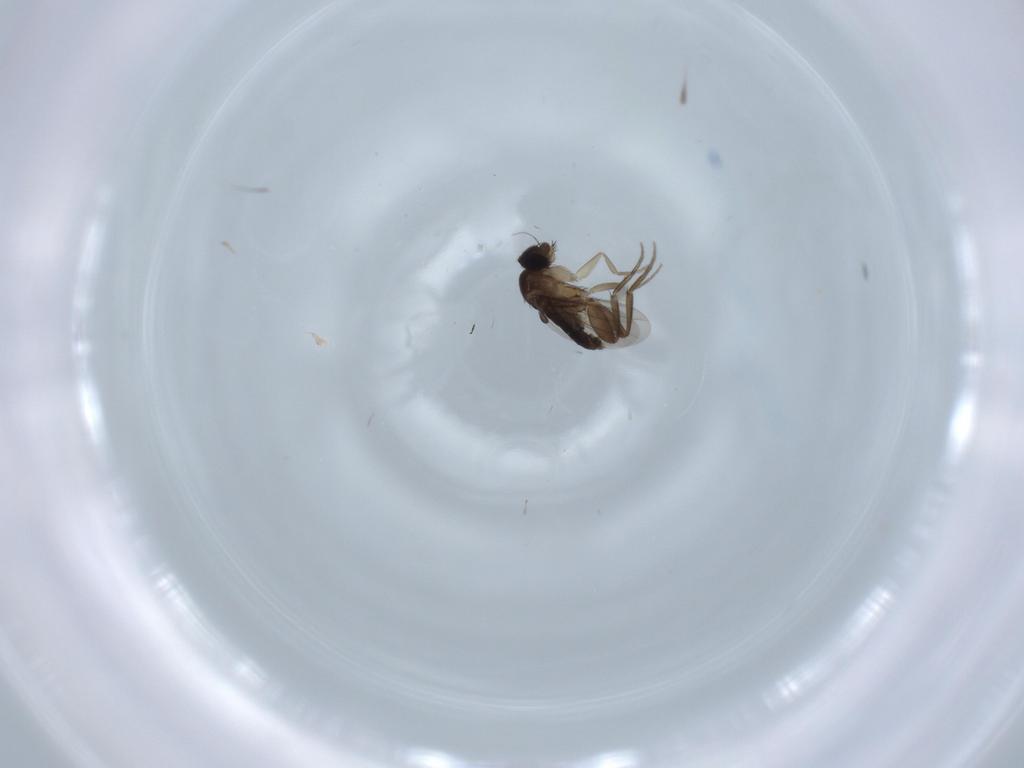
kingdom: Animalia
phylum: Arthropoda
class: Insecta
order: Diptera
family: Phoridae
